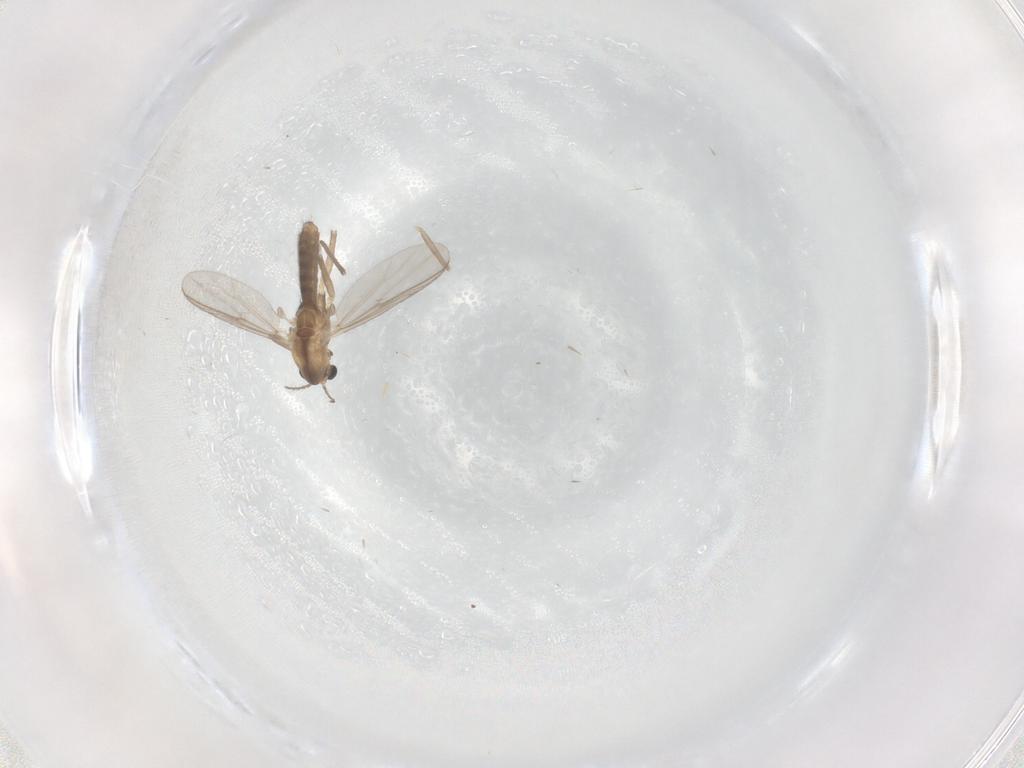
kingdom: Animalia
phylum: Arthropoda
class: Insecta
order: Diptera
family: Chironomidae
